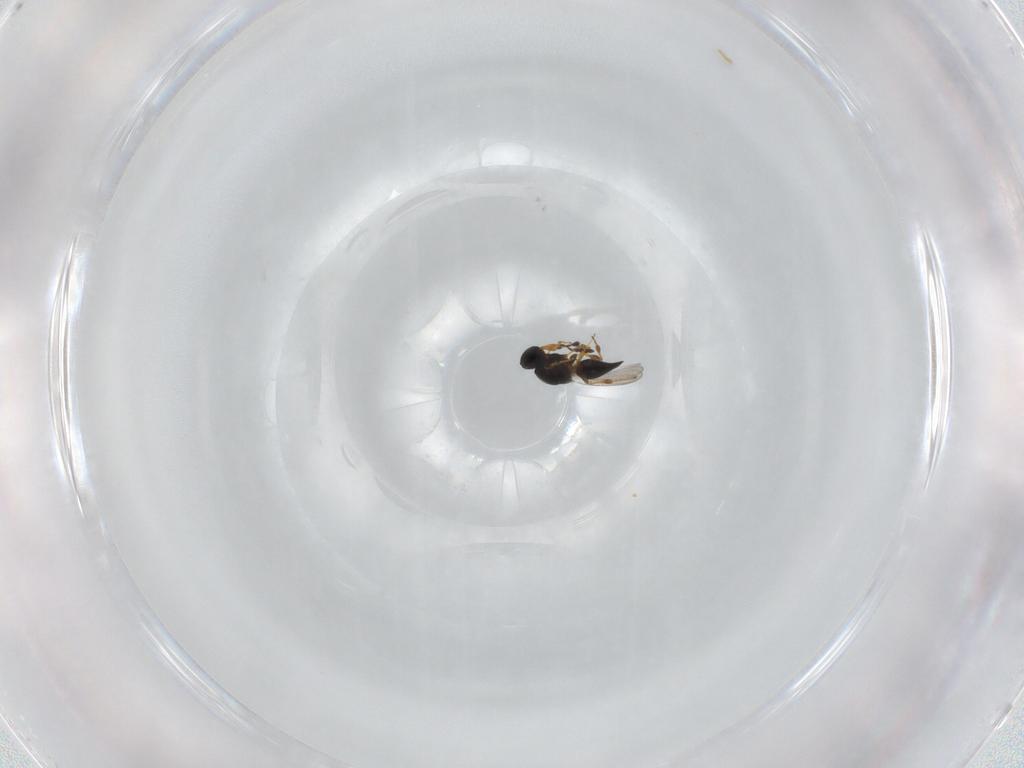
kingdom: Animalia
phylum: Arthropoda
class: Insecta
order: Hymenoptera
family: Platygastridae
